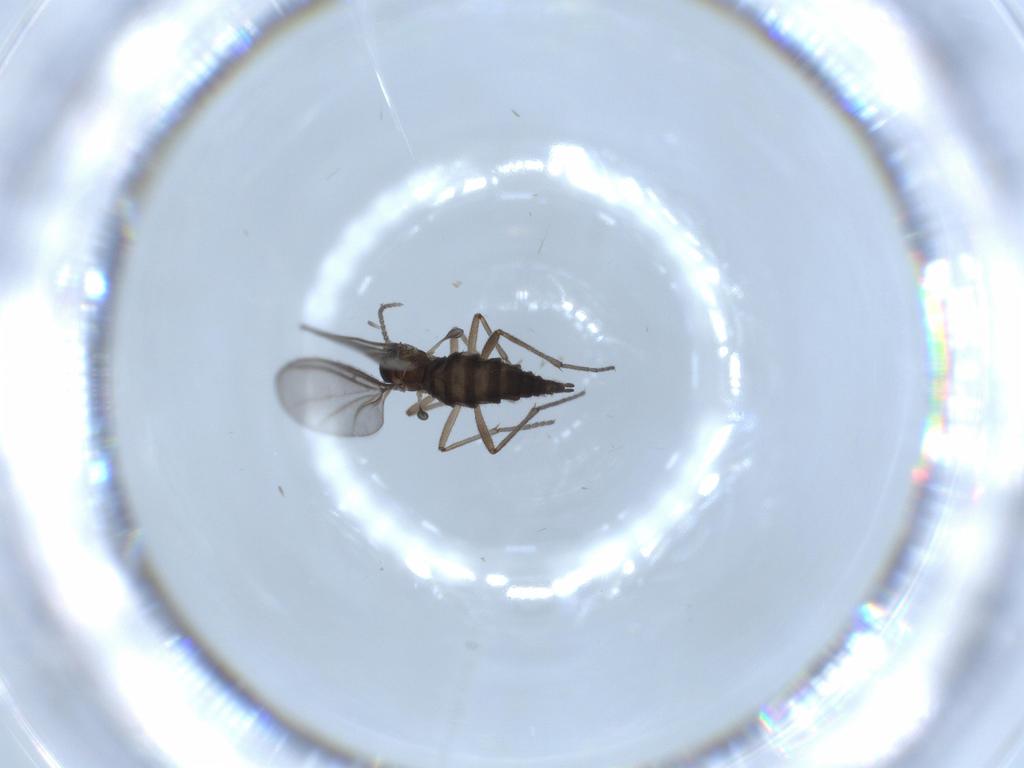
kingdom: Animalia
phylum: Arthropoda
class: Insecta
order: Diptera
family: Sciaridae
